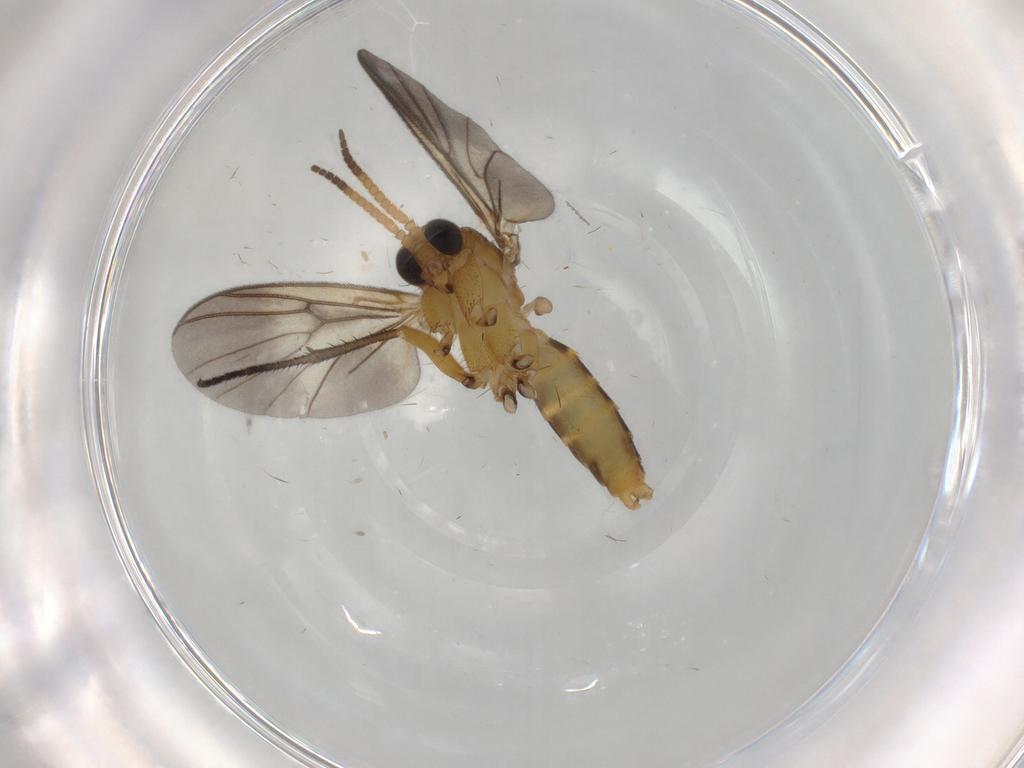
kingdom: Animalia
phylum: Arthropoda
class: Insecta
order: Diptera
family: Mycetophilidae
